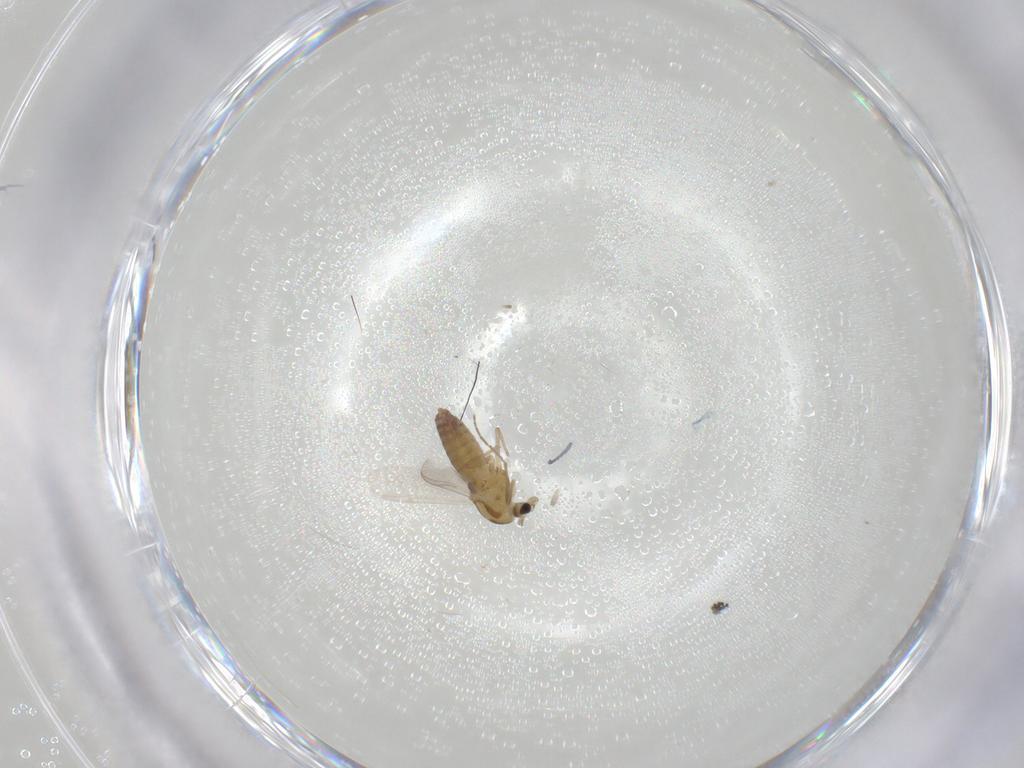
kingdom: Animalia
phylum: Arthropoda
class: Insecta
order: Diptera
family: Chironomidae
